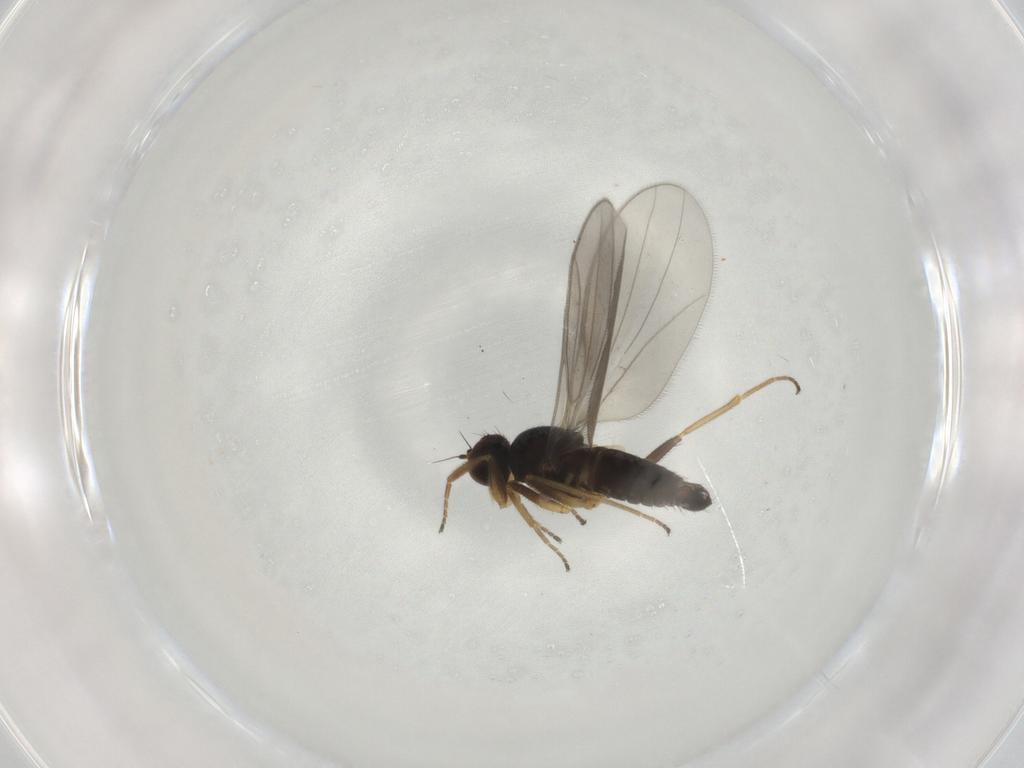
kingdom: Animalia
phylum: Arthropoda
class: Insecta
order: Diptera
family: Hybotidae
